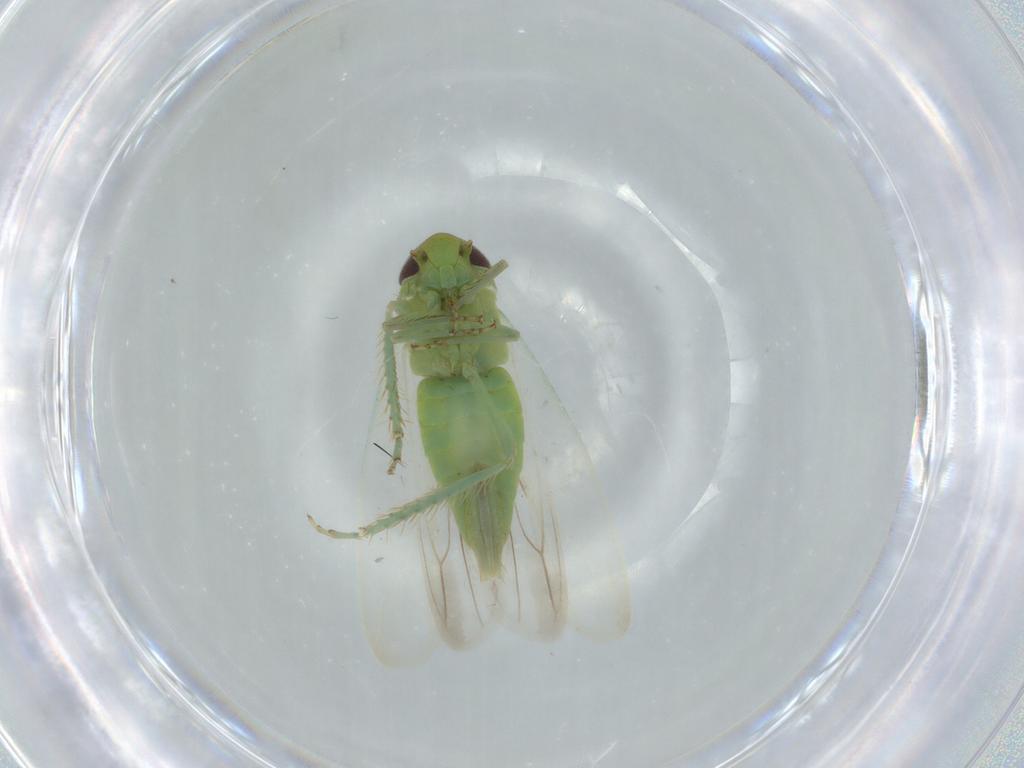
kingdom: Animalia
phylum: Arthropoda
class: Insecta
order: Hemiptera
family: Cicadellidae
